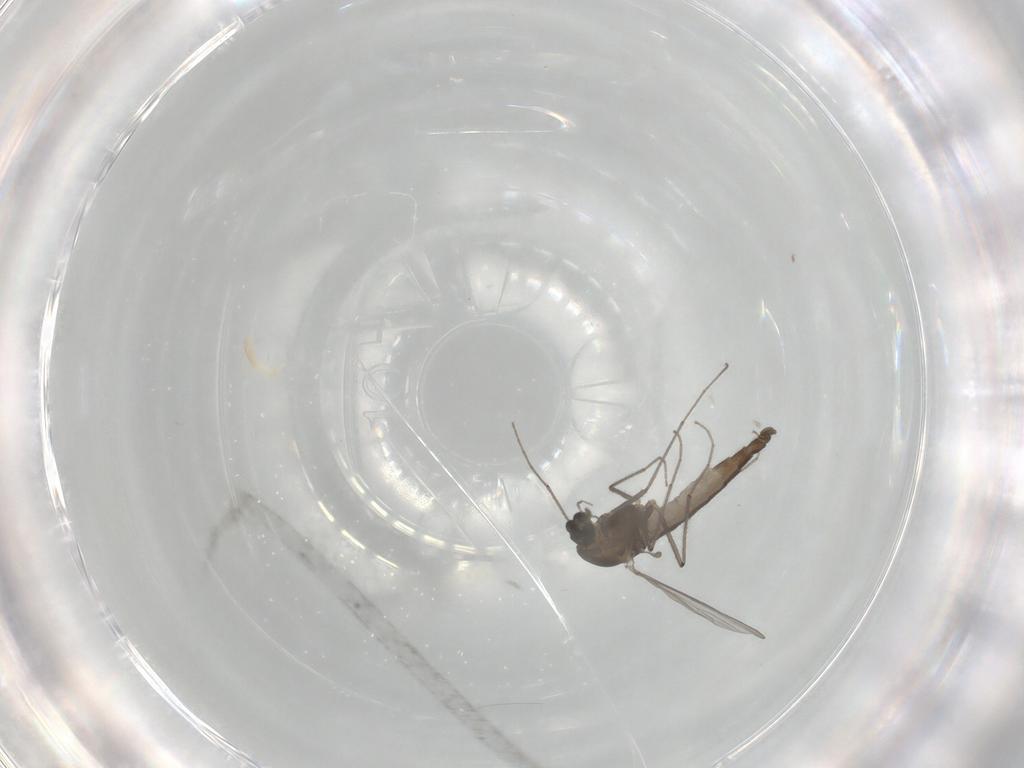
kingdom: Animalia
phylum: Arthropoda
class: Insecta
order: Diptera
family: Chironomidae
